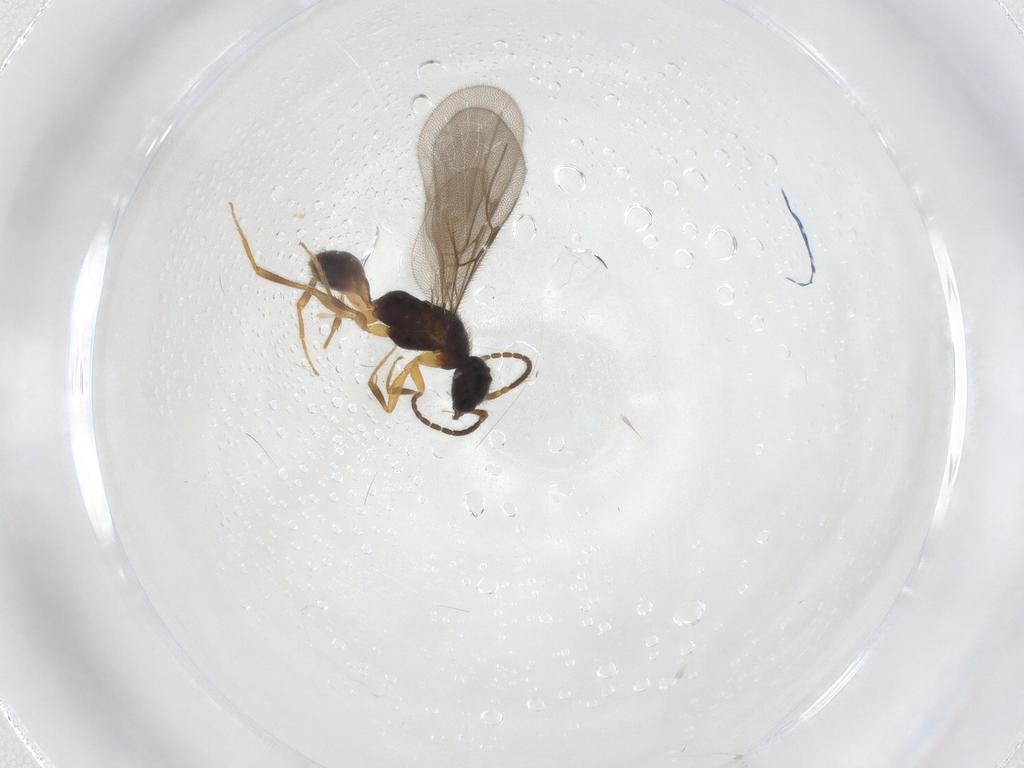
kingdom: Animalia
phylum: Arthropoda
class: Insecta
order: Hymenoptera
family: Bethylidae
